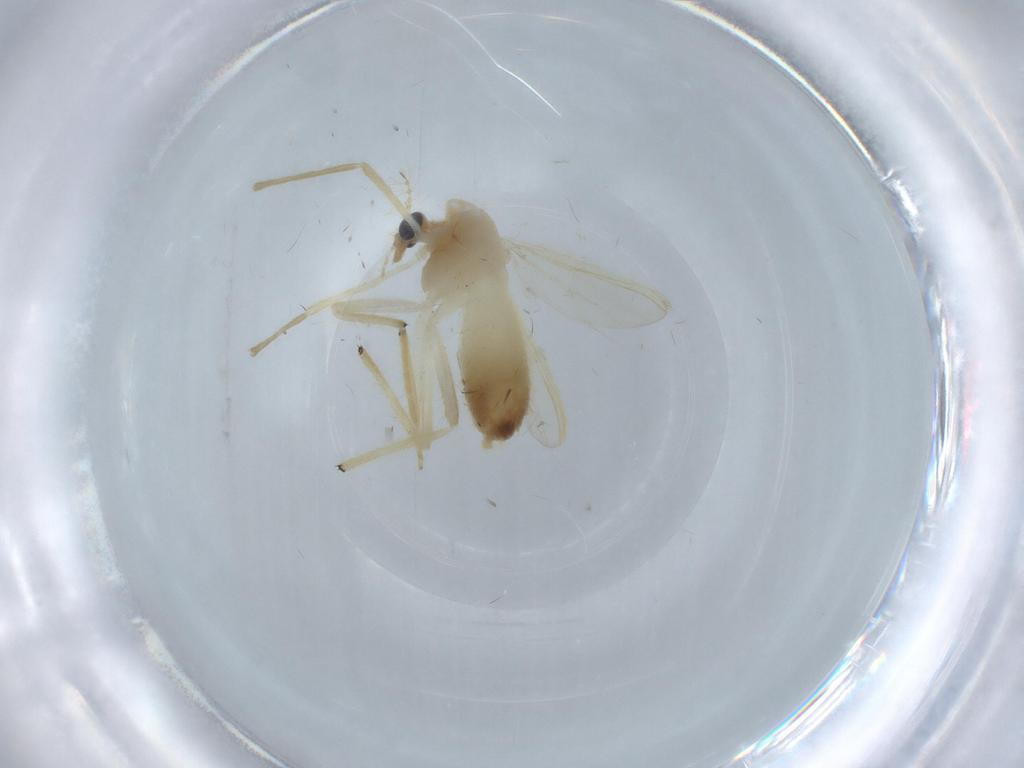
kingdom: Animalia
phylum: Arthropoda
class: Insecta
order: Diptera
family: Chironomidae
